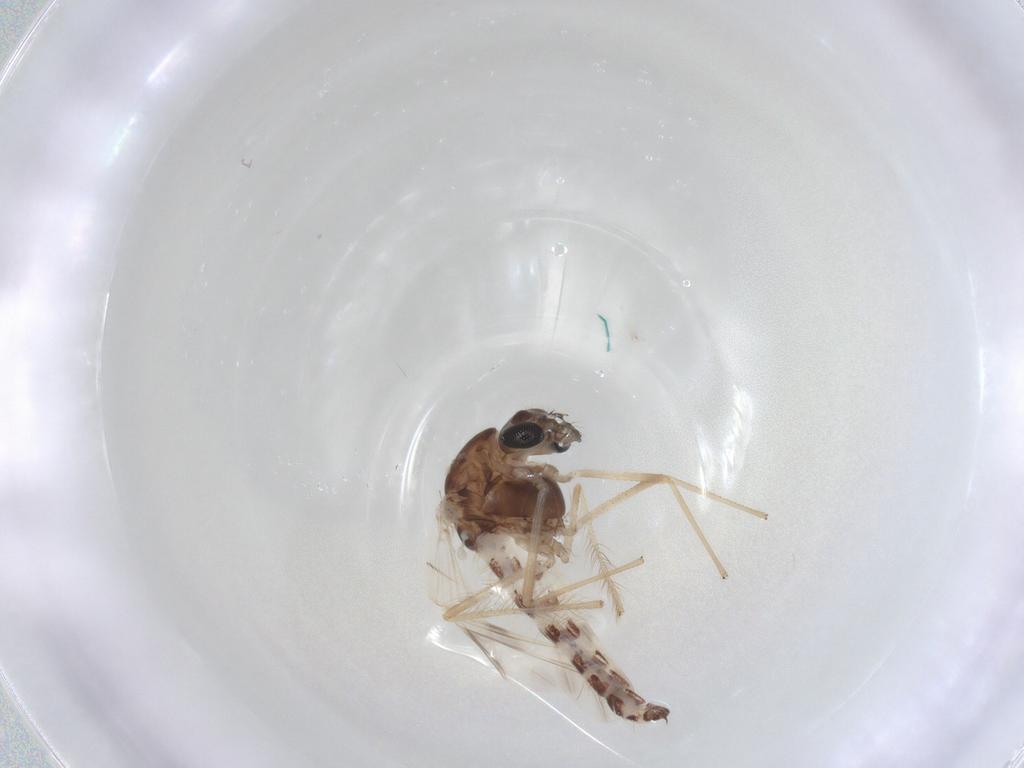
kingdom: Animalia
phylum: Arthropoda
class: Insecta
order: Diptera
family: Chironomidae
